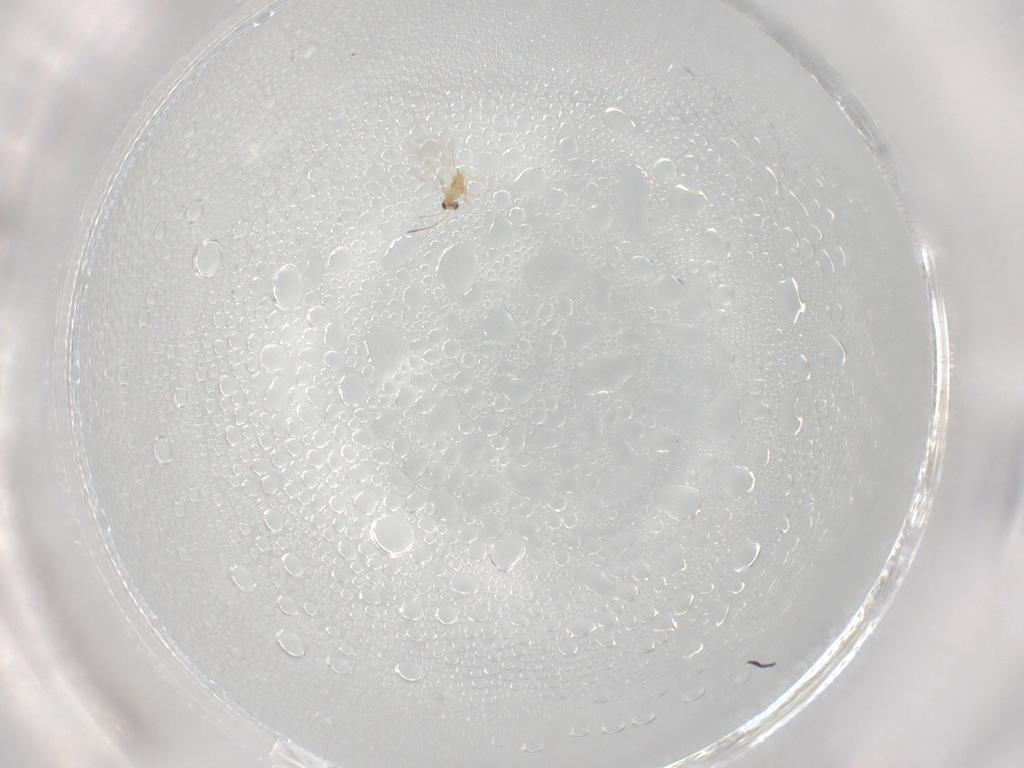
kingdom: Animalia
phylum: Arthropoda
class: Insecta
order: Hymenoptera
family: Mymaridae
